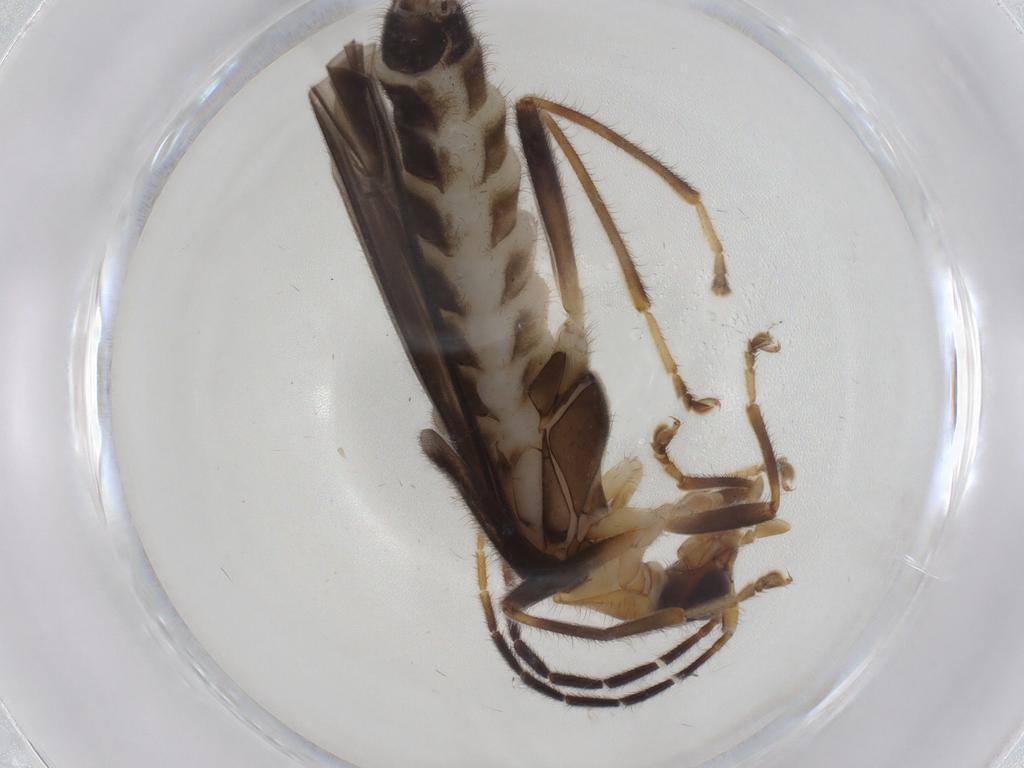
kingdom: Animalia
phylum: Arthropoda
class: Insecta
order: Coleoptera
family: Cantharidae
